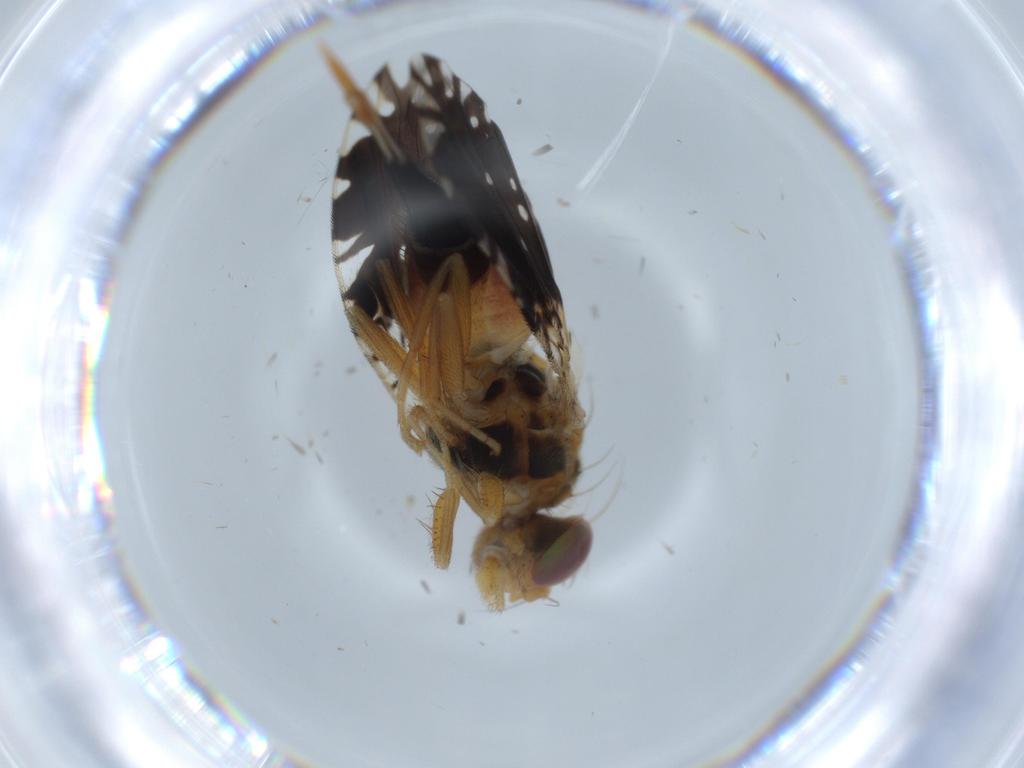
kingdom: Animalia
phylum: Arthropoda
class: Insecta
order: Diptera
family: Tephritidae
